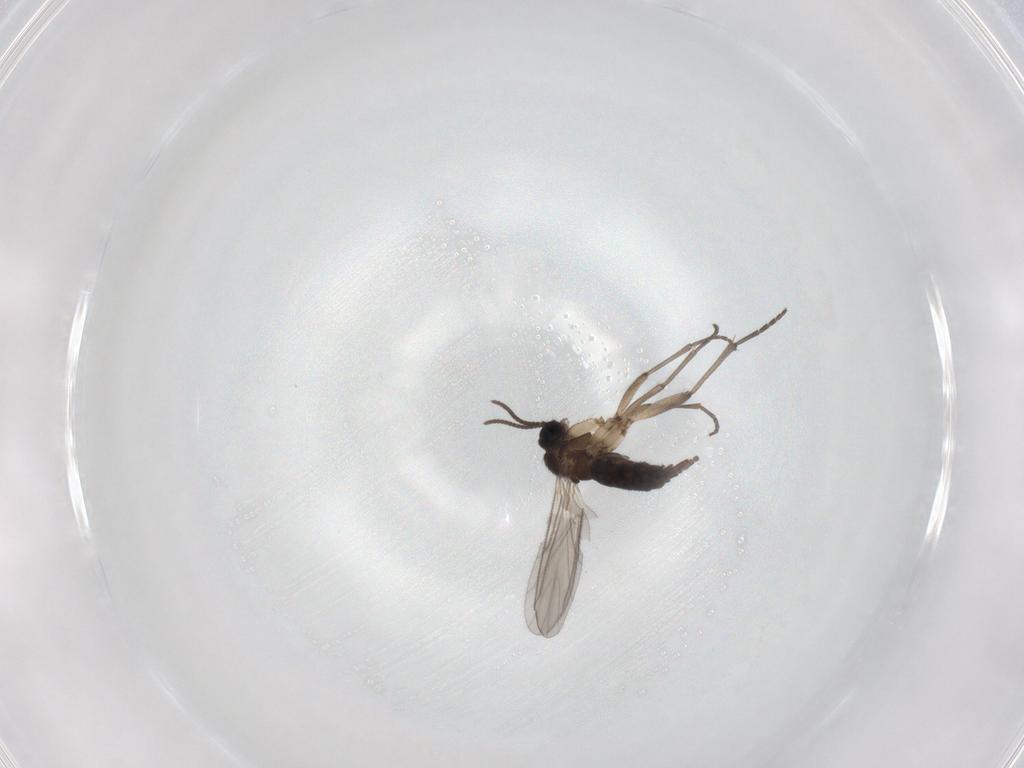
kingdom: Animalia
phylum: Arthropoda
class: Insecta
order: Diptera
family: Sciaridae
